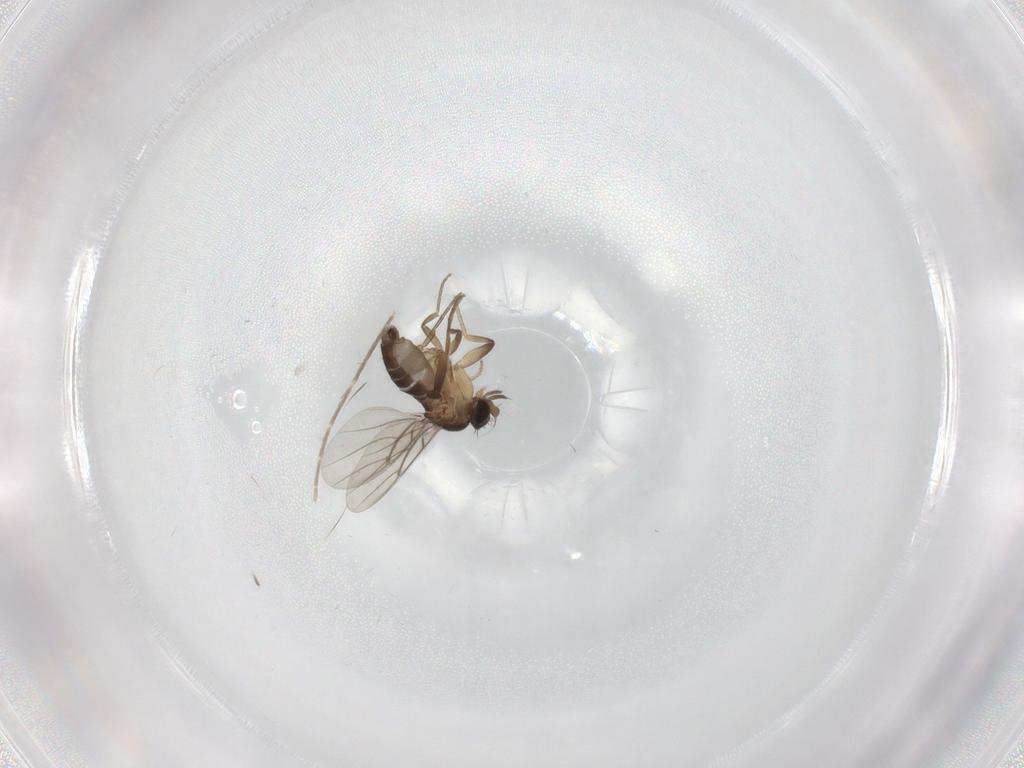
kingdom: Animalia
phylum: Arthropoda
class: Insecta
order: Diptera
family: Phoridae
